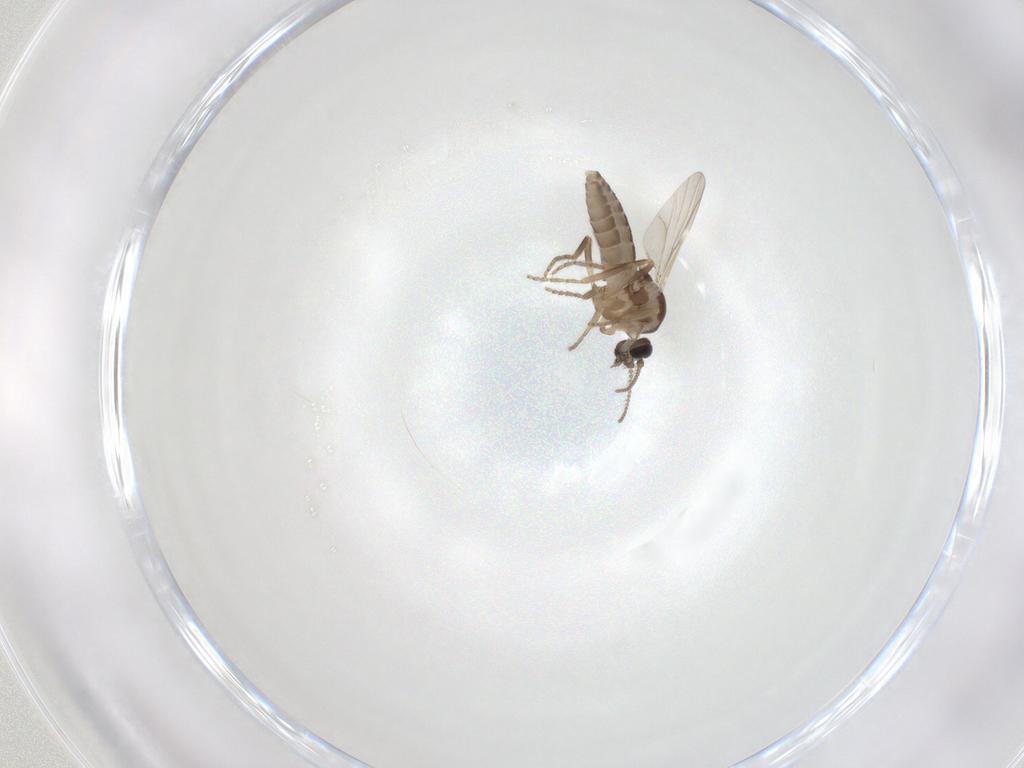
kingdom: Animalia
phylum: Arthropoda
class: Insecta
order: Diptera
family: Ceratopogonidae
